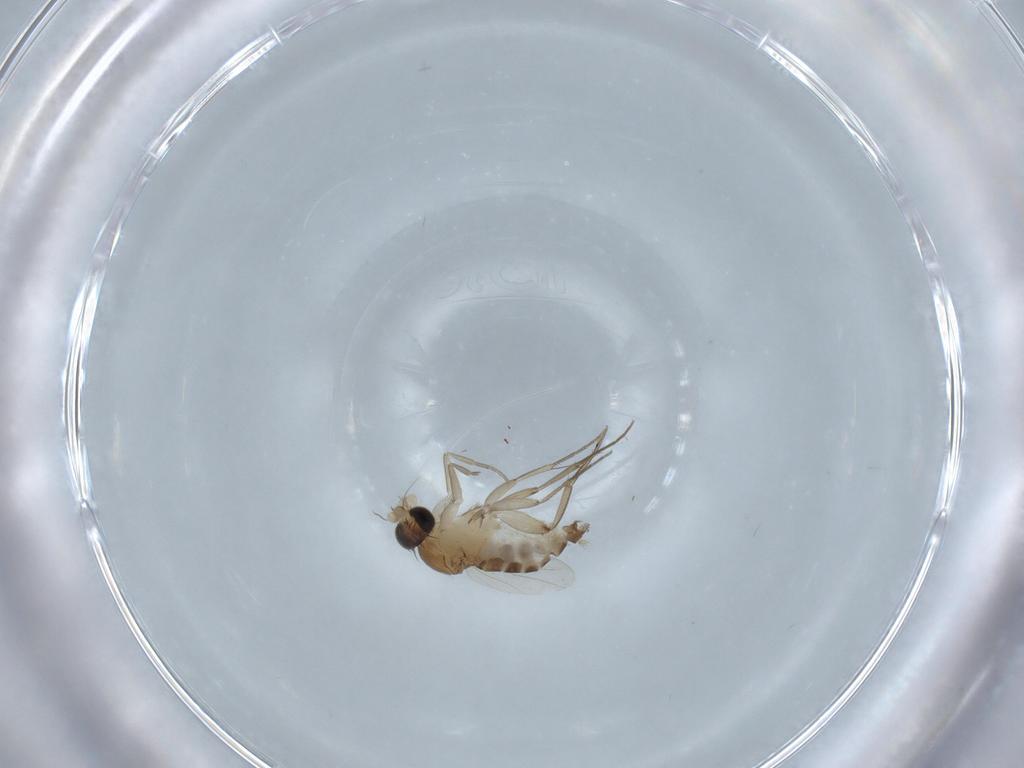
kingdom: Animalia
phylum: Arthropoda
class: Insecta
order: Diptera
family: Phoridae
